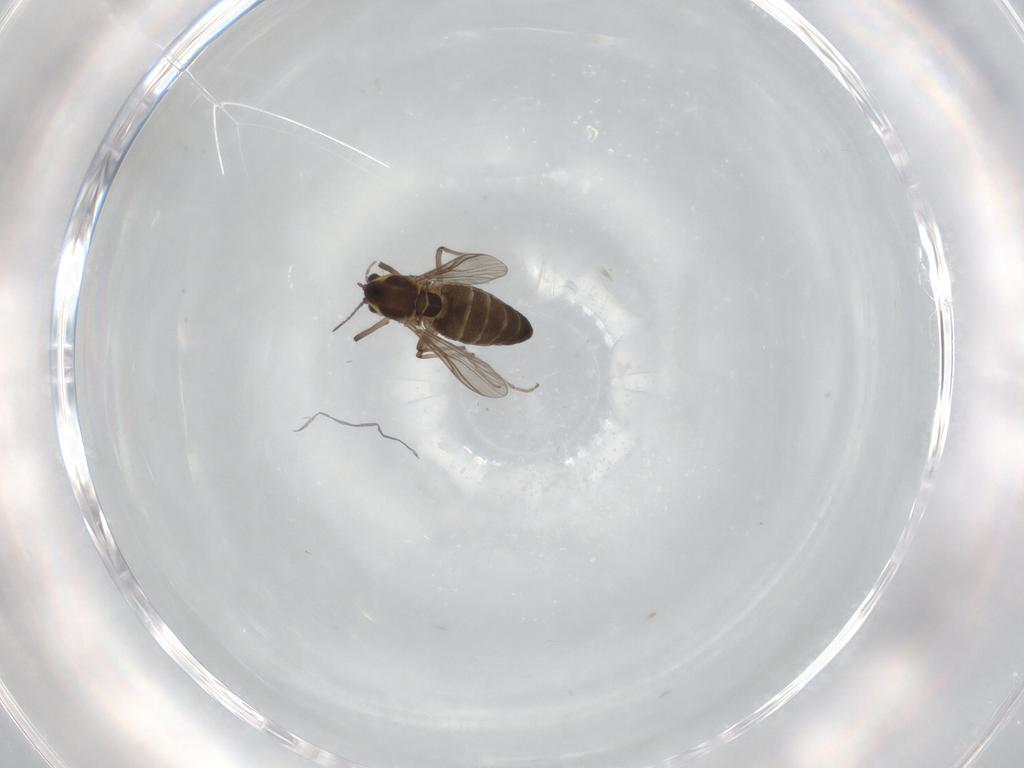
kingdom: Animalia
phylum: Arthropoda
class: Insecta
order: Diptera
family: Chironomidae
